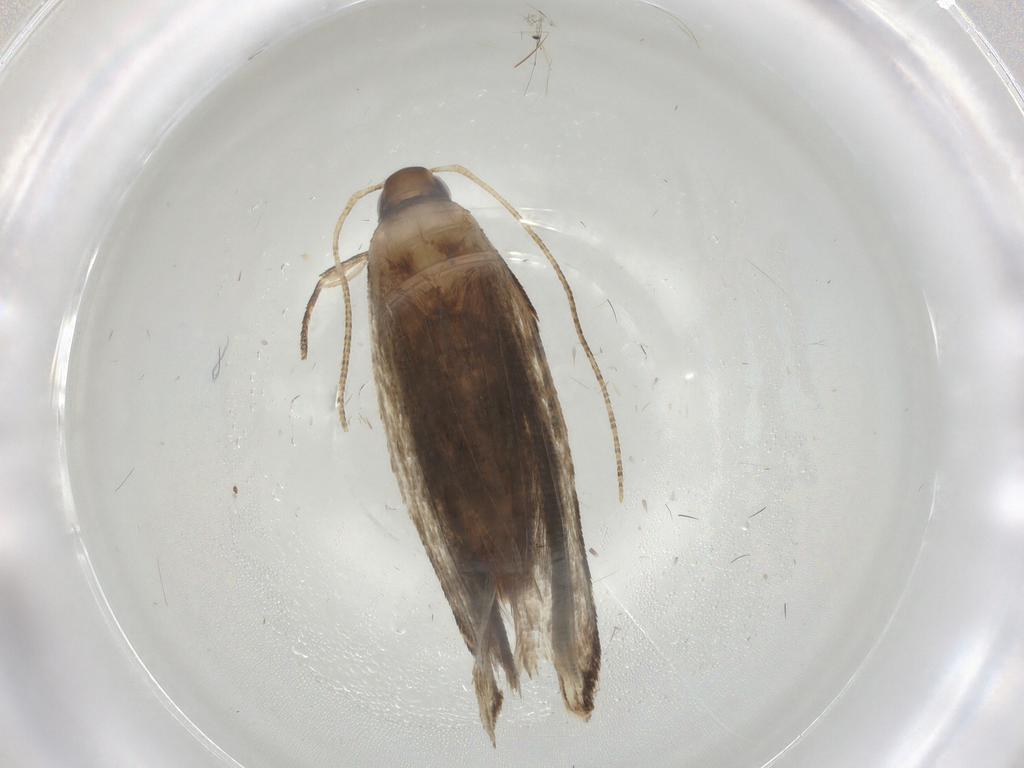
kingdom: Animalia
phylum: Arthropoda
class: Insecta
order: Lepidoptera
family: Gelechiidae
